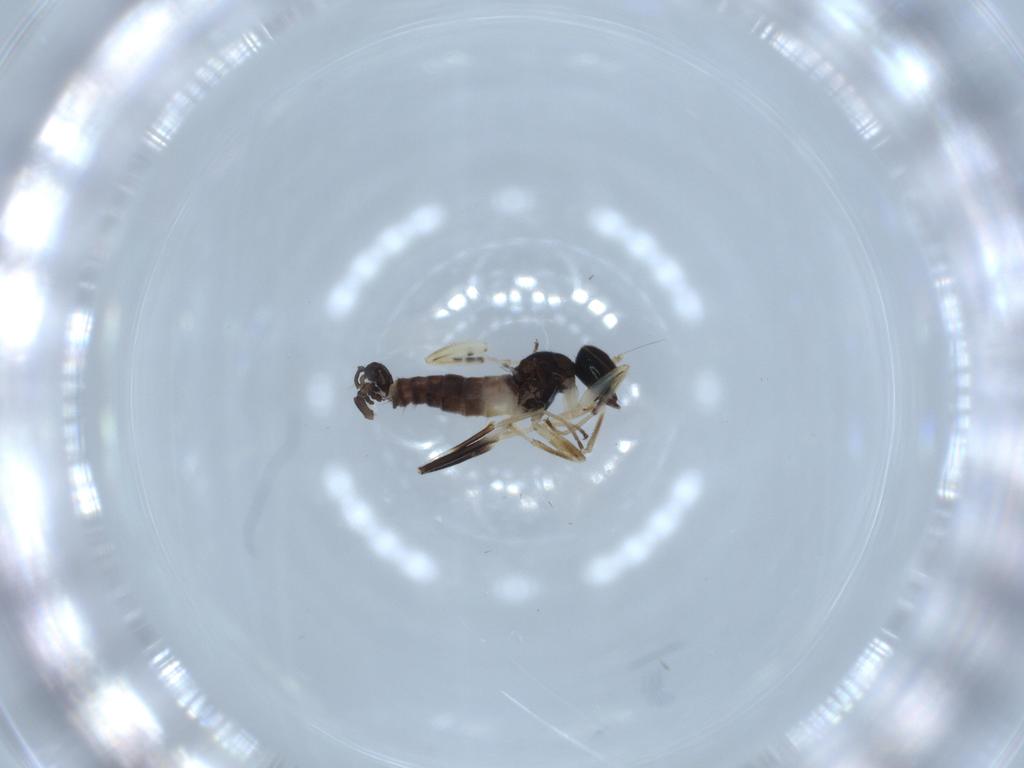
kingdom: Animalia
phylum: Arthropoda
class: Insecta
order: Diptera
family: Hybotidae
